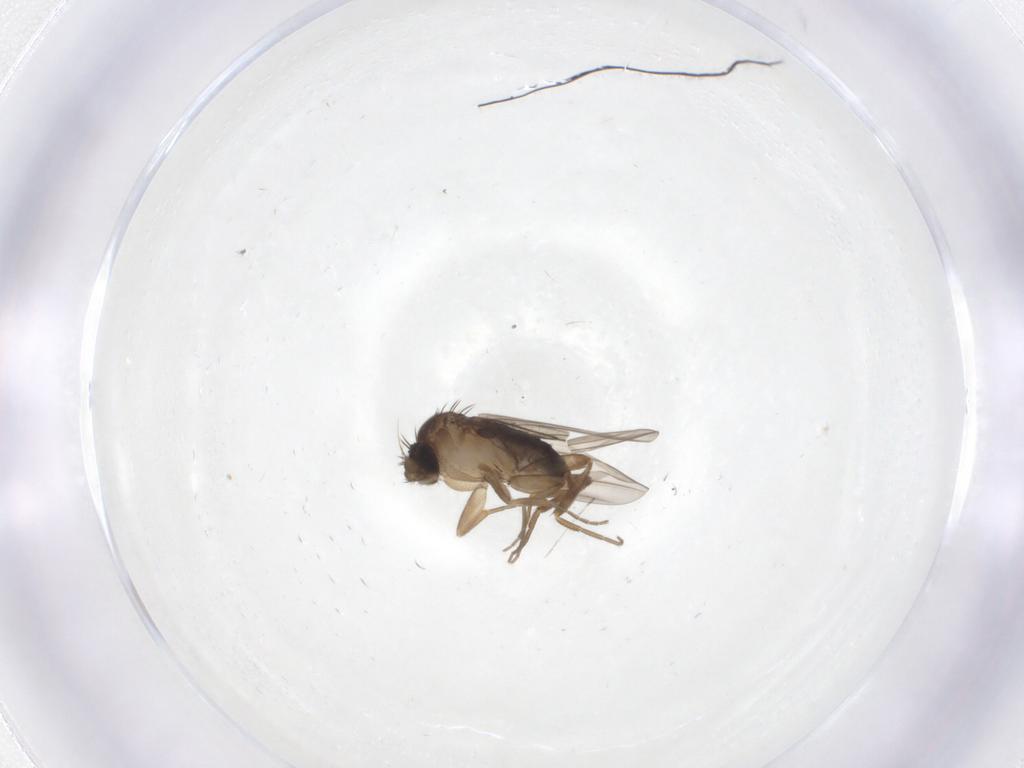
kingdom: Animalia
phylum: Arthropoda
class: Insecta
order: Diptera
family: Phoridae
